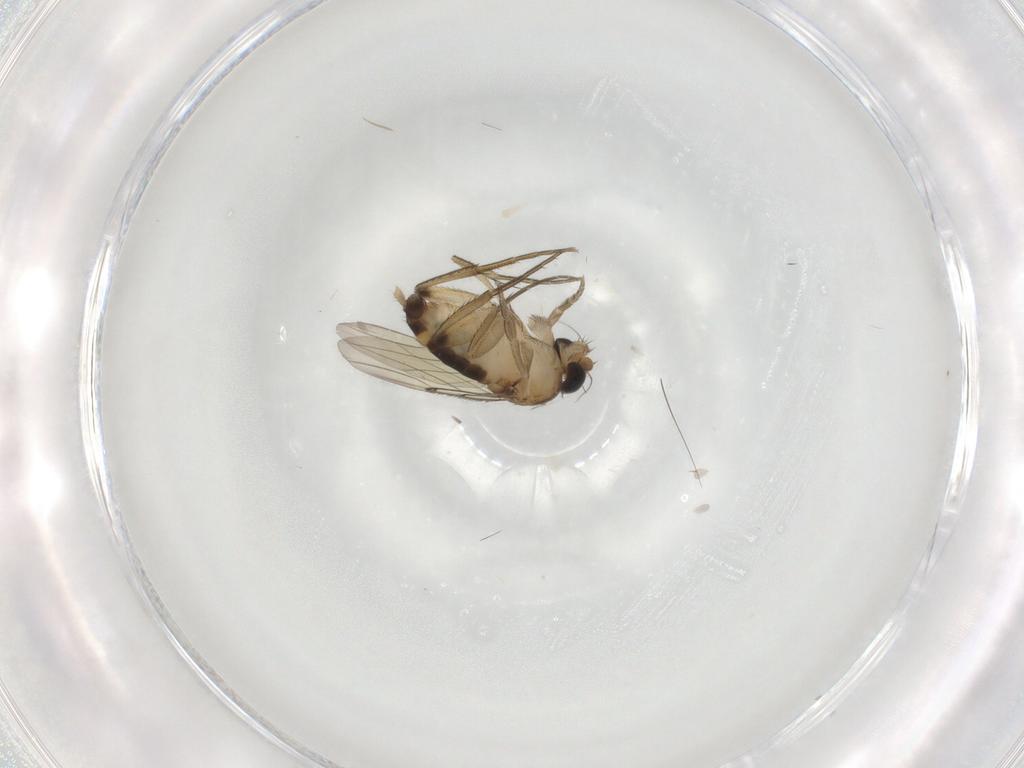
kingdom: Animalia
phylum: Arthropoda
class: Insecta
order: Diptera
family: Phoridae
